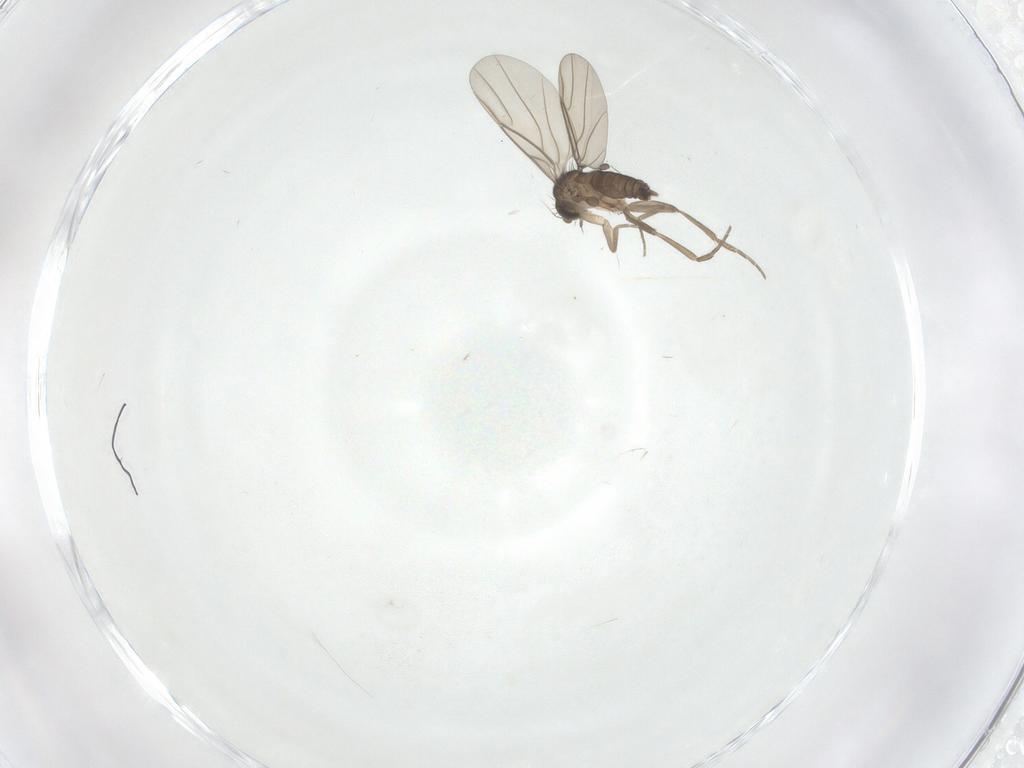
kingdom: Animalia
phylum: Arthropoda
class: Insecta
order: Diptera
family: Phoridae
